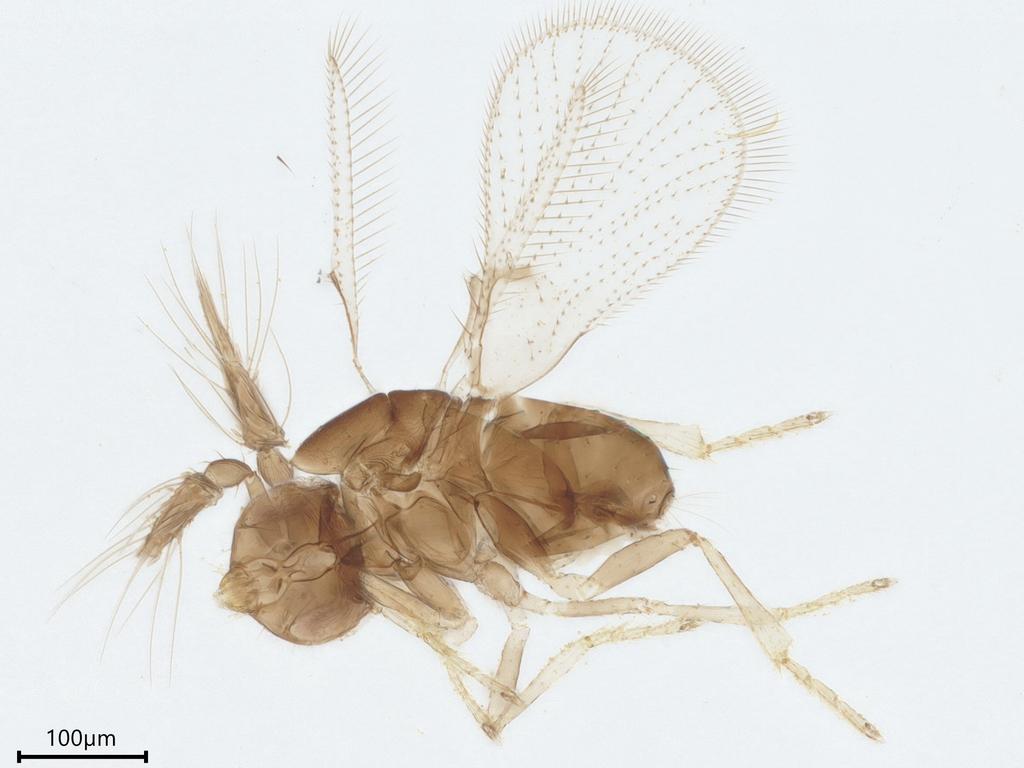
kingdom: Animalia
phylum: Arthropoda
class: Insecta
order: Hymenoptera
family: Trichogrammatidae
